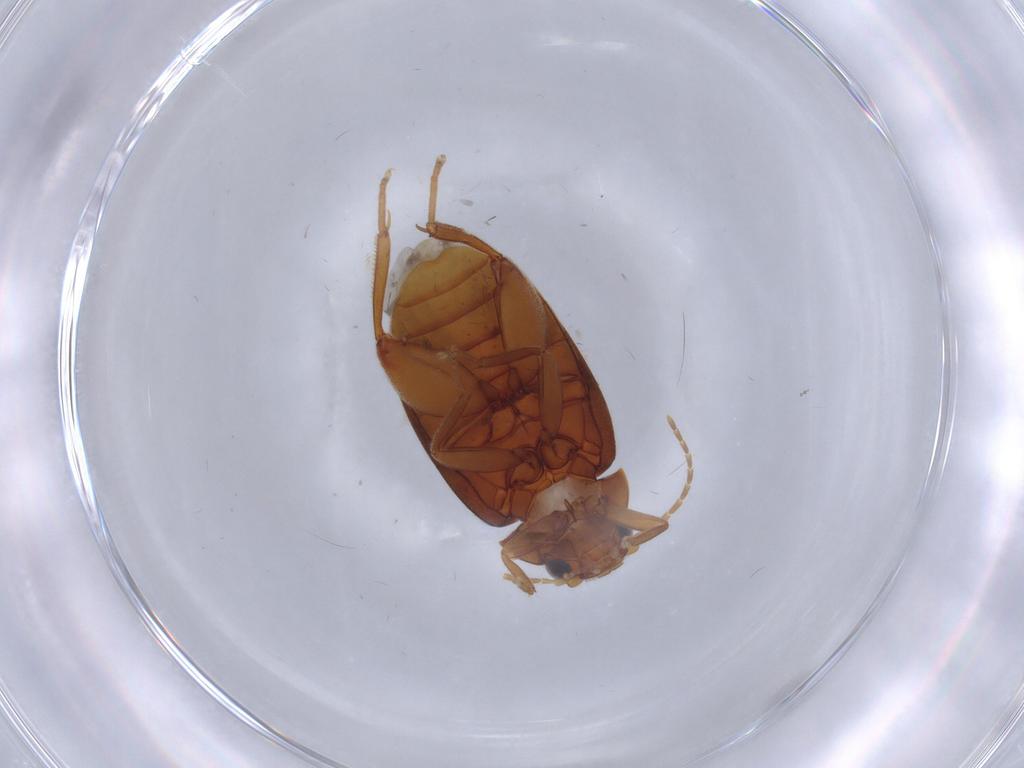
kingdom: Animalia
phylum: Arthropoda
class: Insecta
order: Coleoptera
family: Scirtidae
